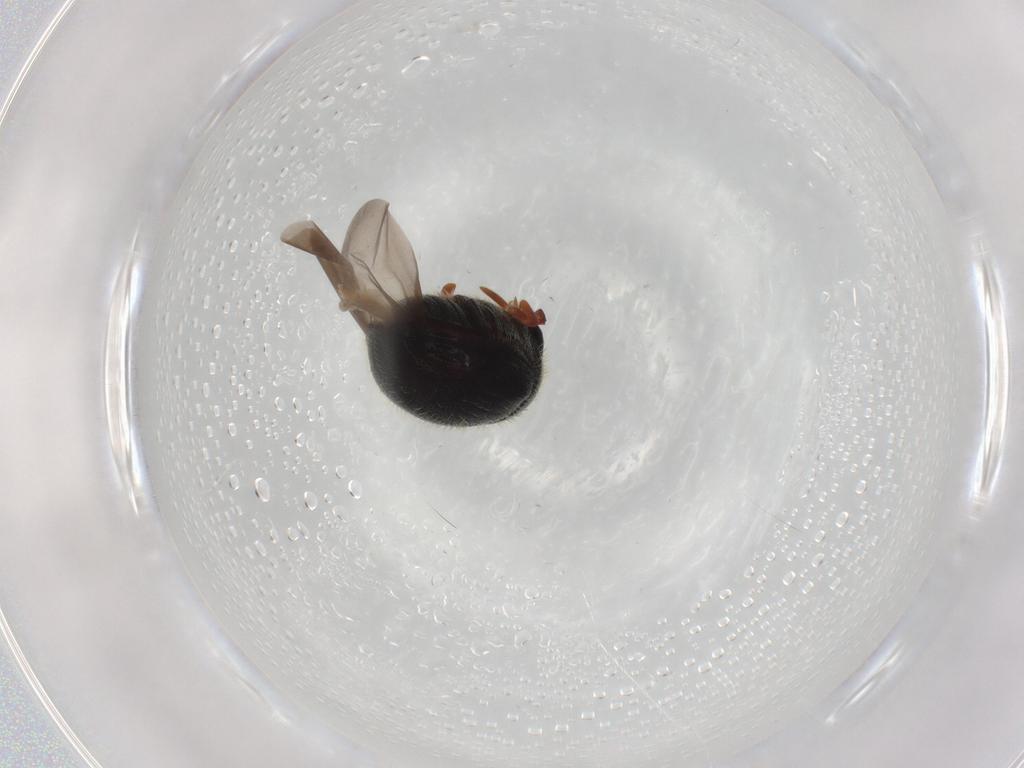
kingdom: Animalia
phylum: Arthropoda
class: Insecta
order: Coleoptera
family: Ptinidae
